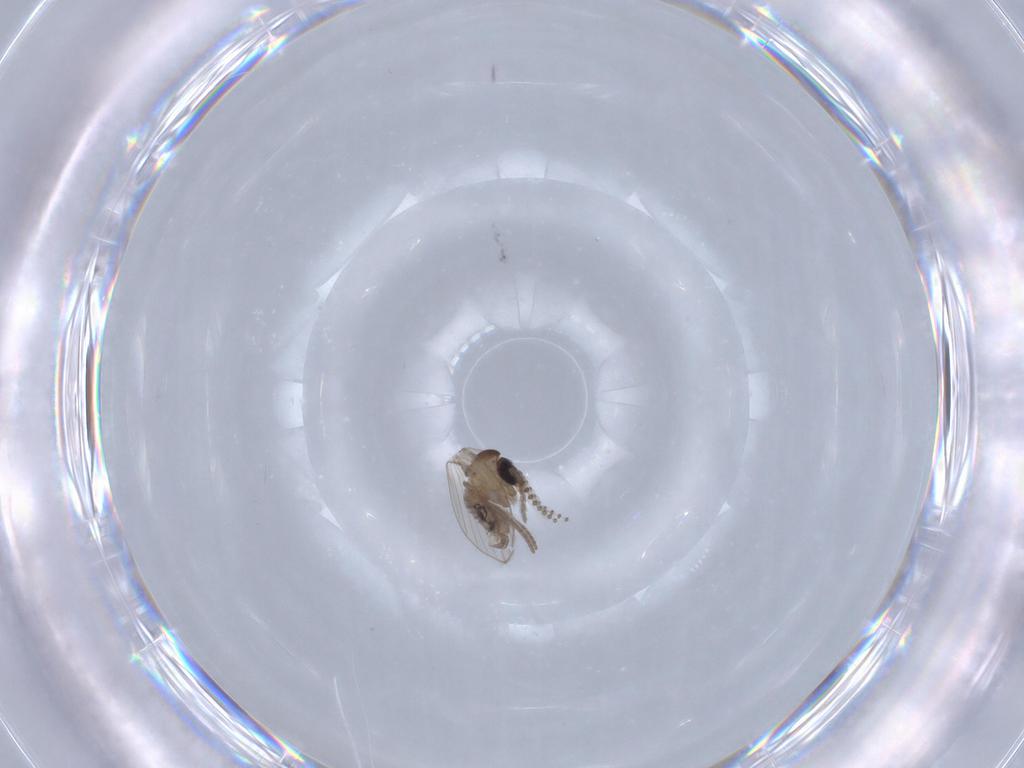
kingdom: Animalia
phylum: Arthropoda
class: Insecta
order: Diptera
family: Psychodidae
